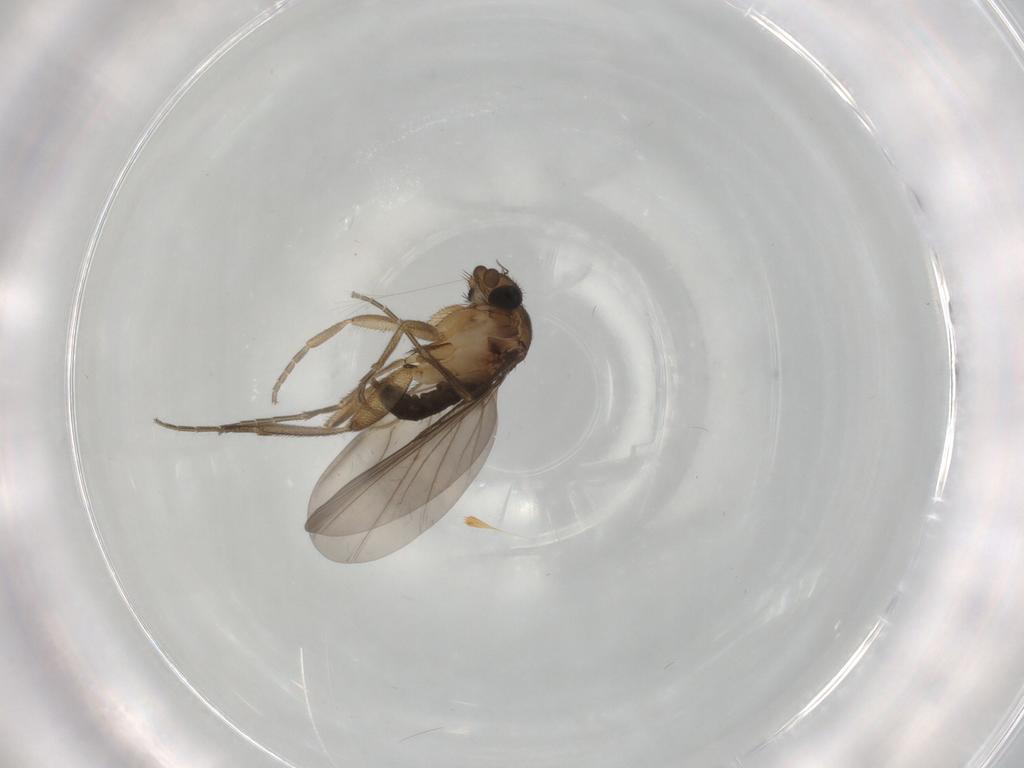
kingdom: Animalia
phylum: Arthropoda
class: Insecta
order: Diptera
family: Phoridae
